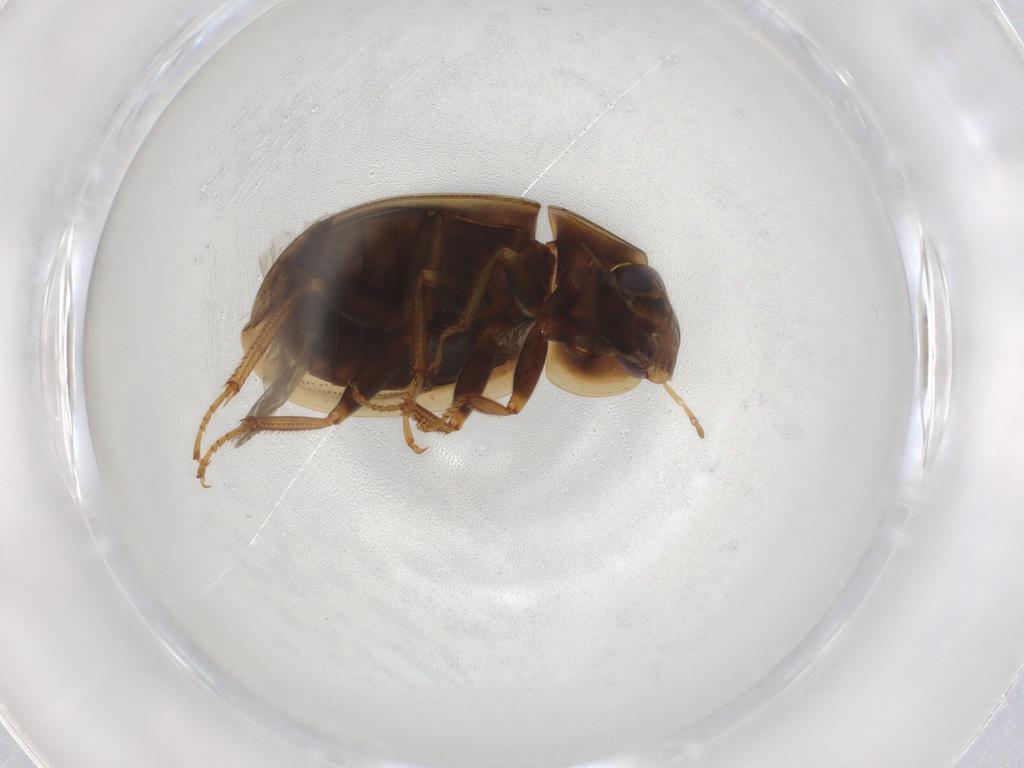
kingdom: Animalia
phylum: Arthropoda
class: Insecta
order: Coleoptera
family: Hydrophilidae
